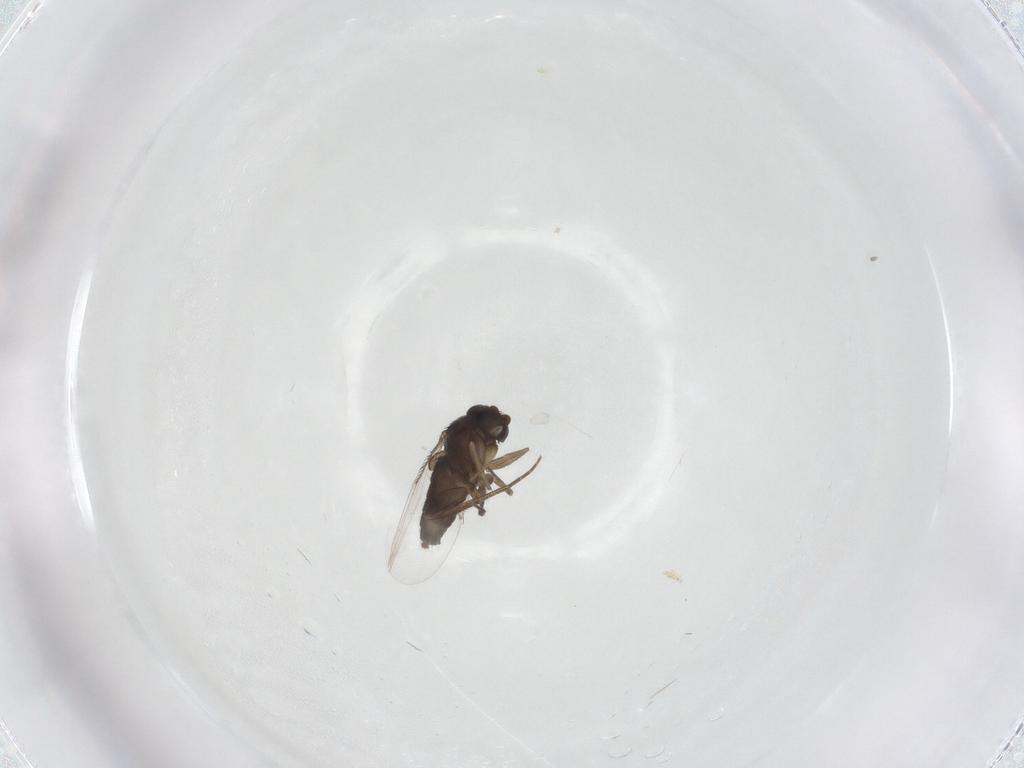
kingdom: Animalia
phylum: Arthropoda
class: Insecta
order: Diptera
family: Phoridae
